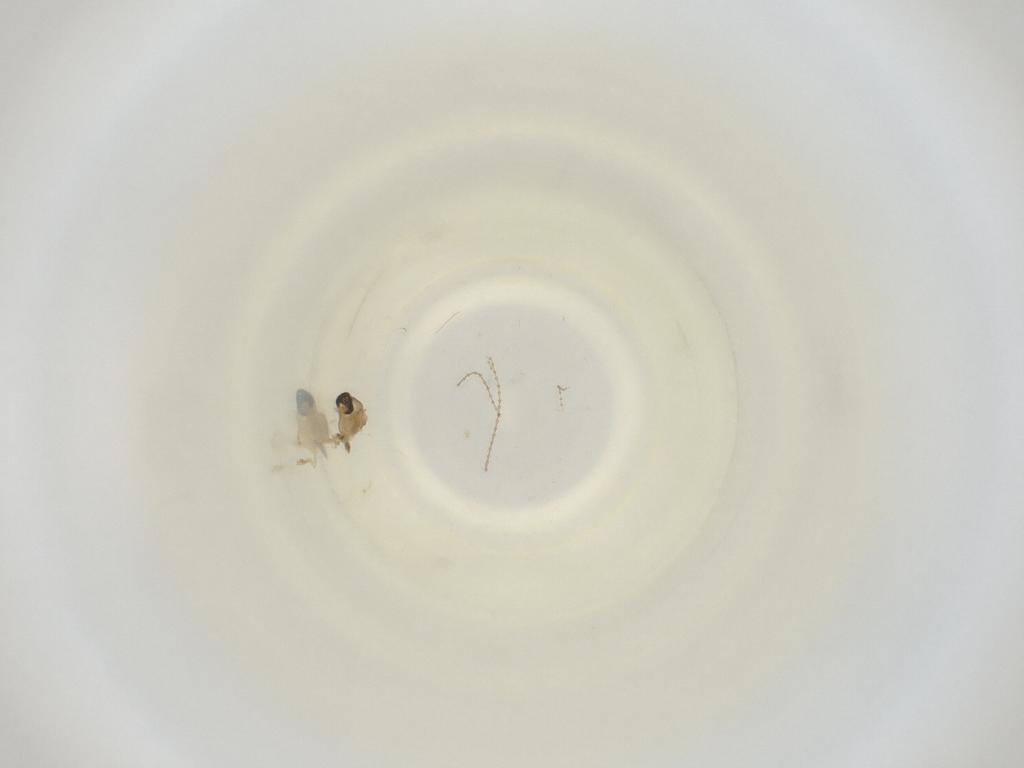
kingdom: Animalia
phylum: Arthropoda
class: Insecta
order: Diptera
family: Cecidomyiidae
